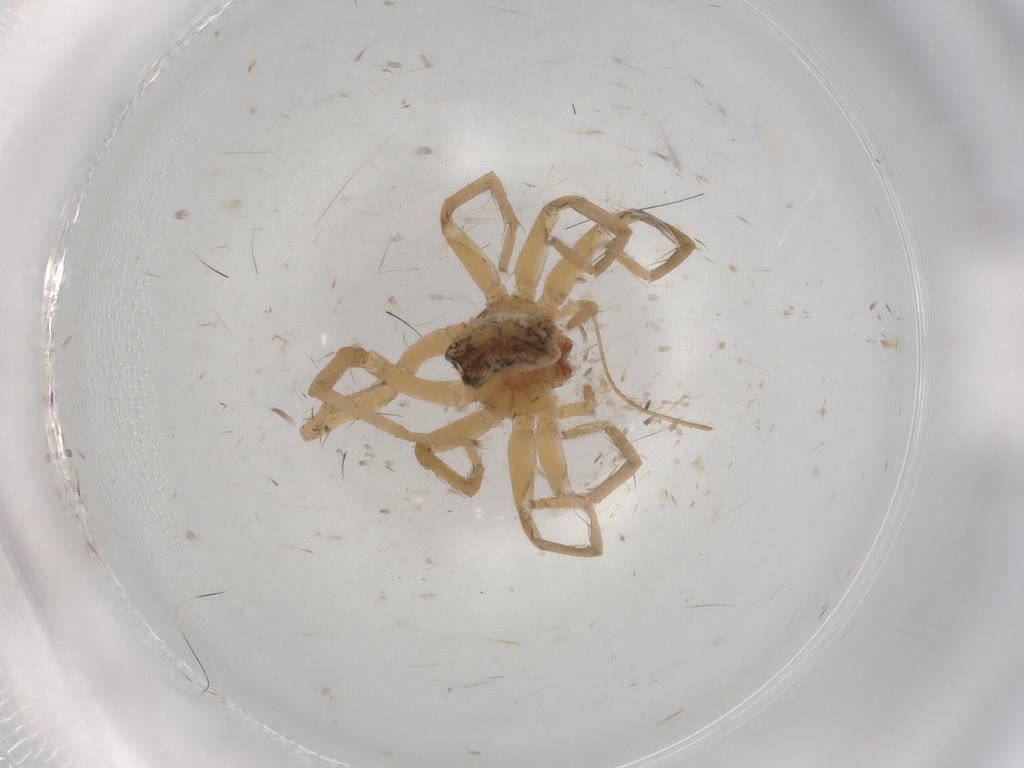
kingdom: Animalia
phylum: Arthropoda
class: Arachnida
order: Araneae
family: Lycosidae
